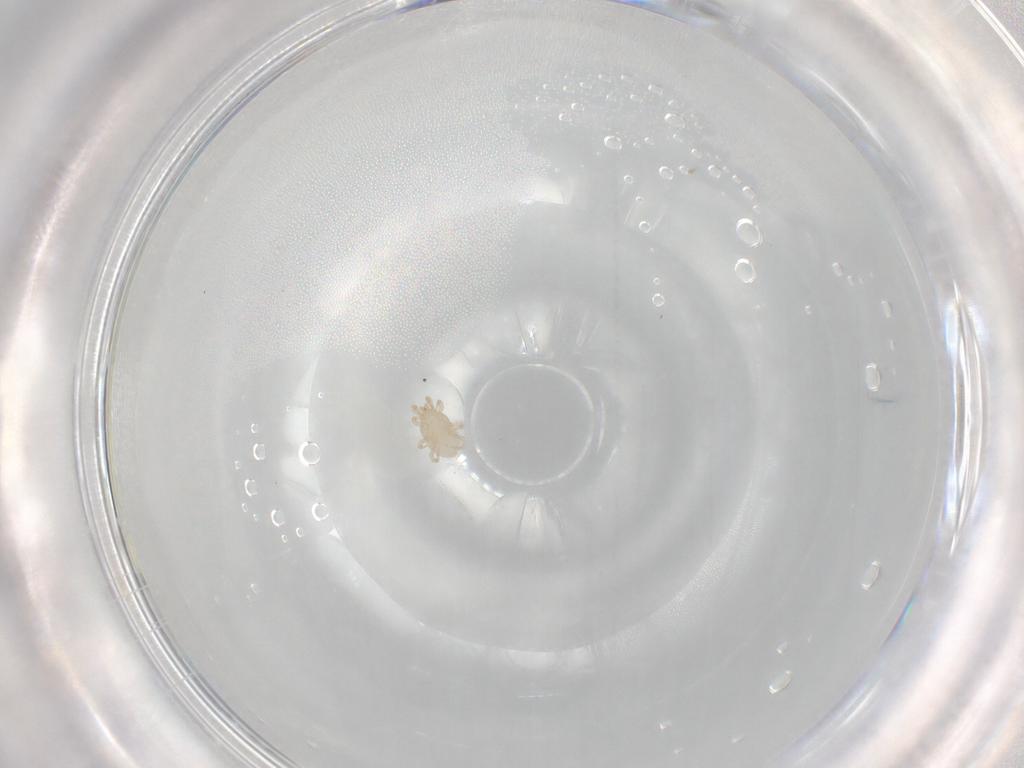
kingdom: Animalia
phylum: Arthropoda
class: Arachnida
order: Mesostigmata
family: Melicharidae
